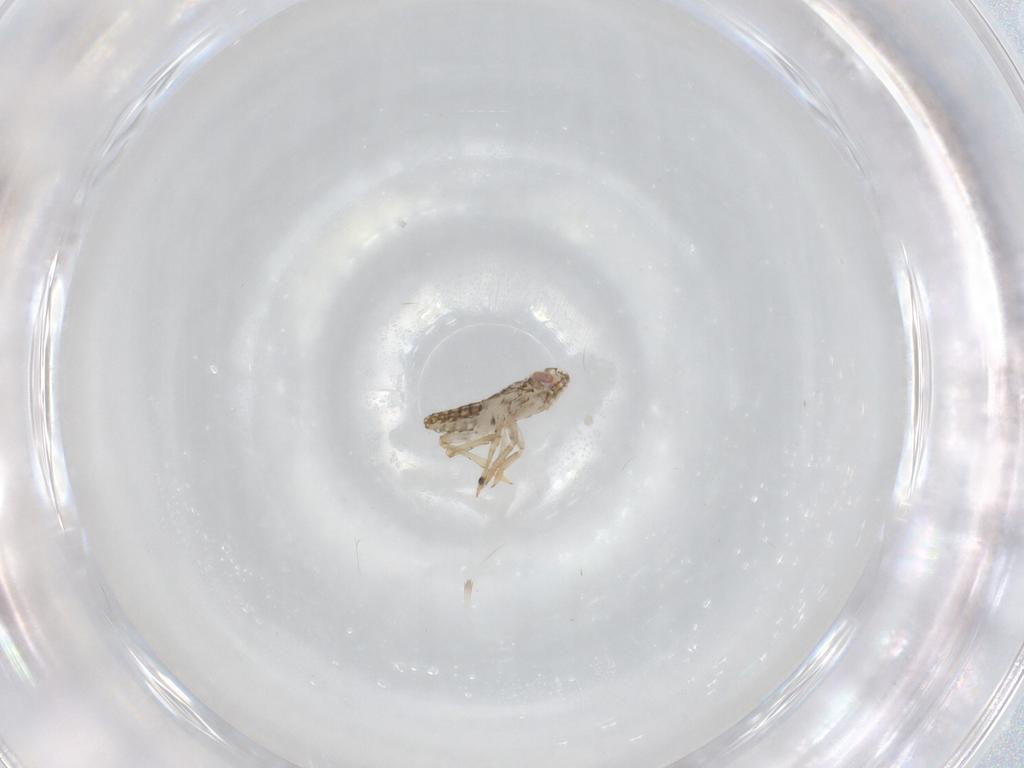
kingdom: Animalia
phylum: Arthropoda
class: Insecta
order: Hemiptera
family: Delphacidae
